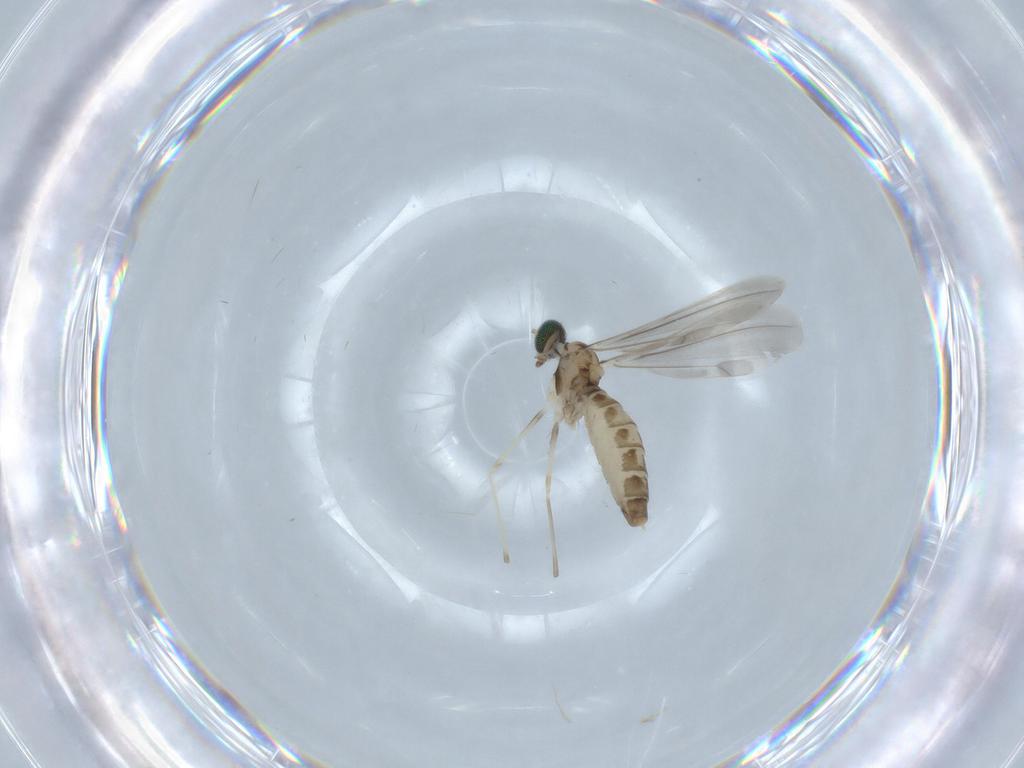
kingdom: Animalia
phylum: Arthropoda
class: Insecta
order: Diptera
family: Cecidomyiidae
